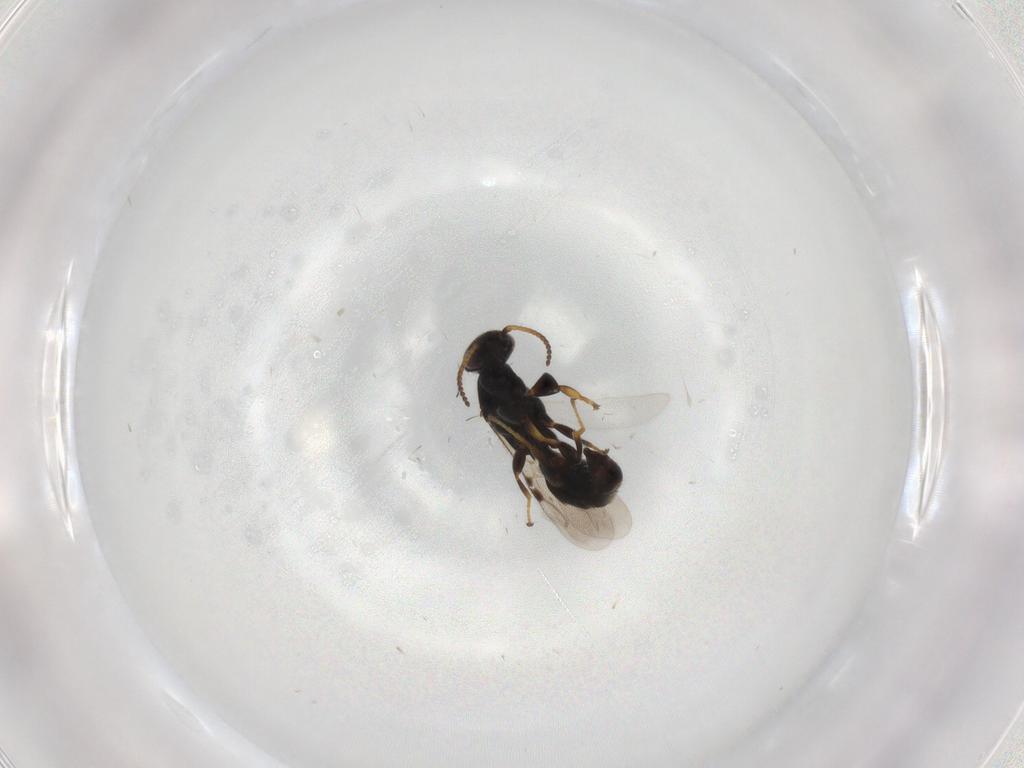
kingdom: Animalia
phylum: Arthropoda
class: Insecta
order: Hymenoptera
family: Bethylidae
